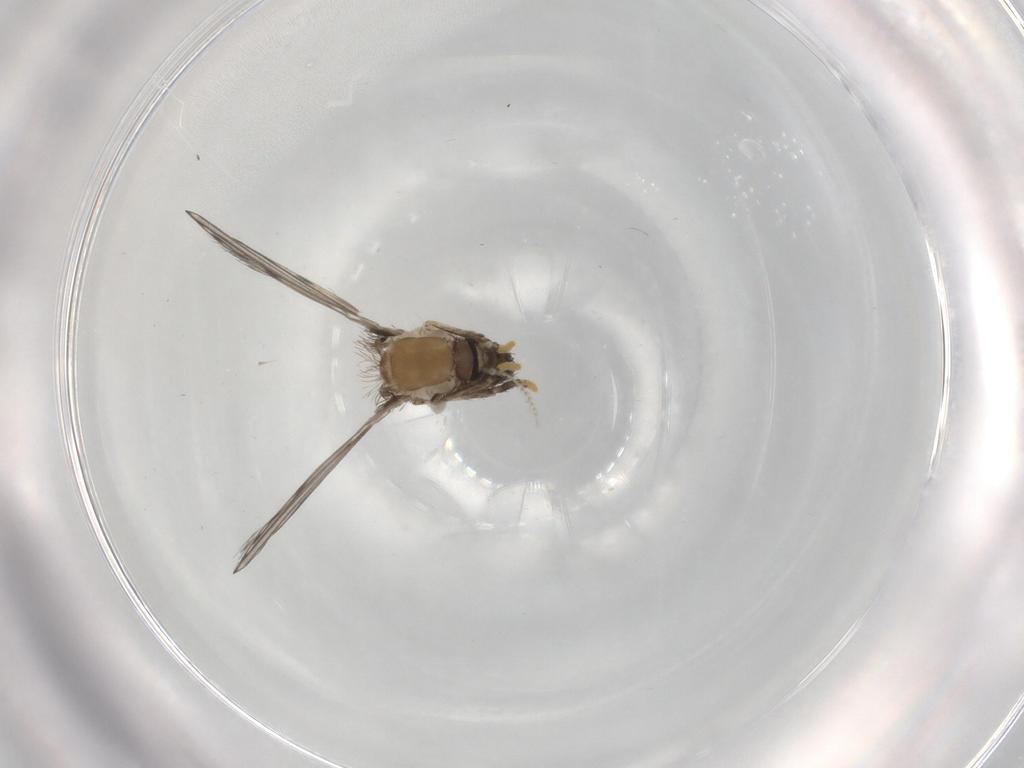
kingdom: Animalia
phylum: Arthropoda
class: Insecta
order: Diptera
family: Psychodidae
